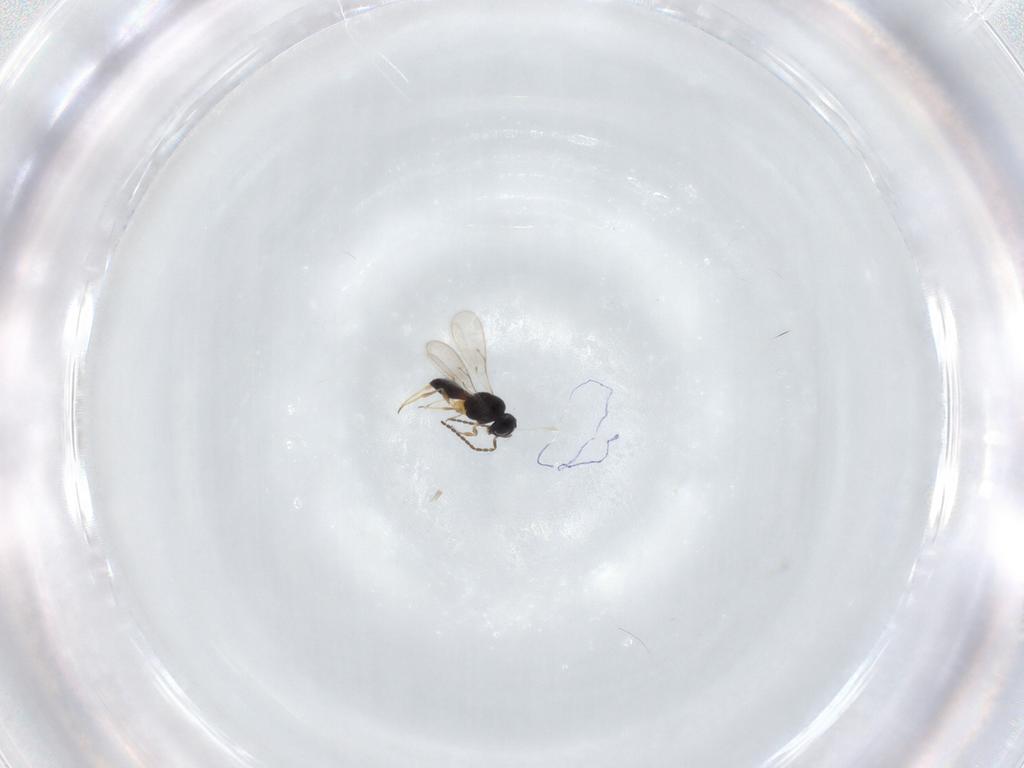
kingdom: Animalia
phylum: Arthropoda
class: Insecta
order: Hymenoptera
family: Scelionidae
